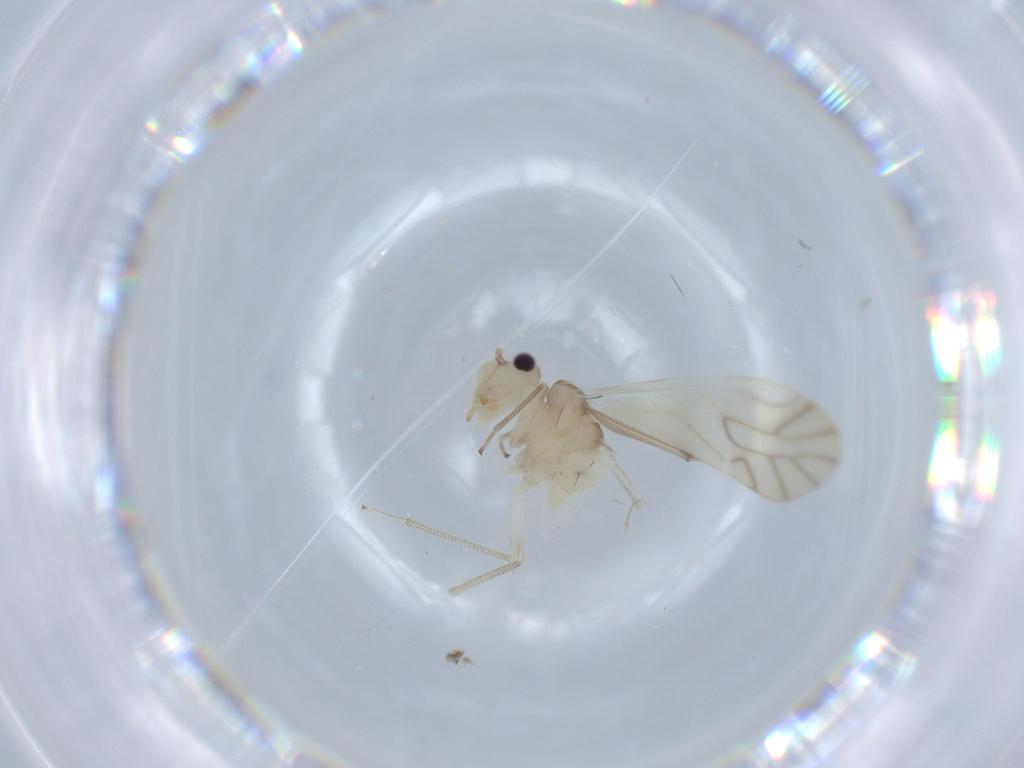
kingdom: Animalia
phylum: Arthropoda
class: Insecta
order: Psocodea
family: Caeciliusidae
